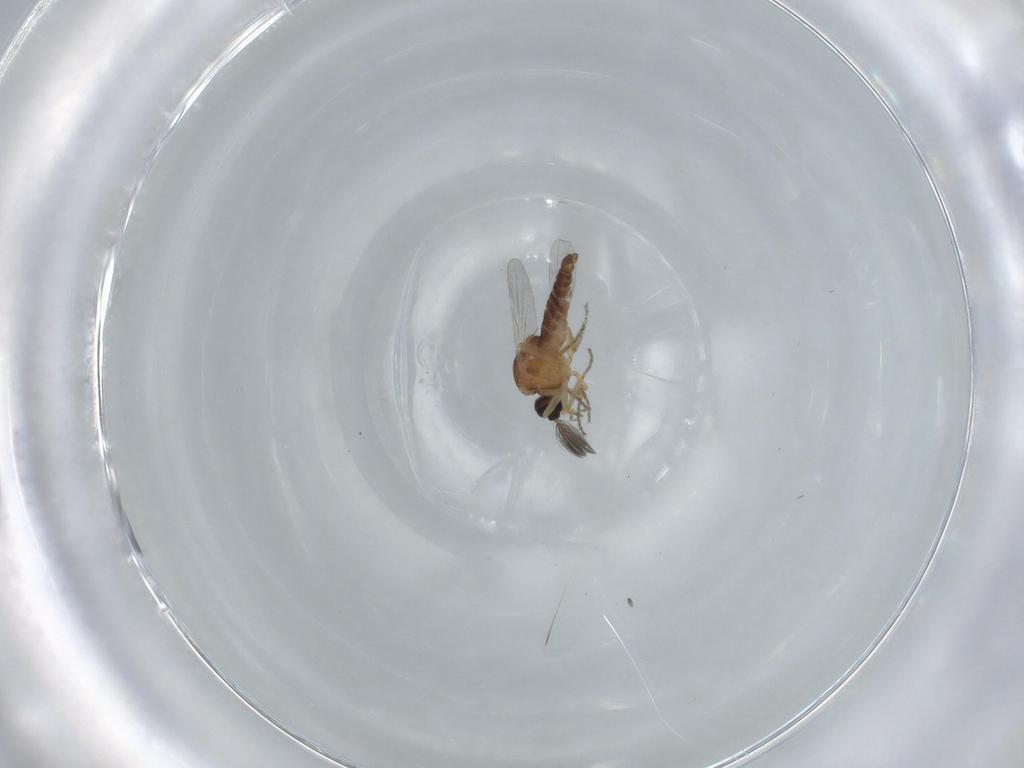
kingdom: Animalia
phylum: Arthropoda
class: Insecta
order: Diptera
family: Ceratopogonidae
